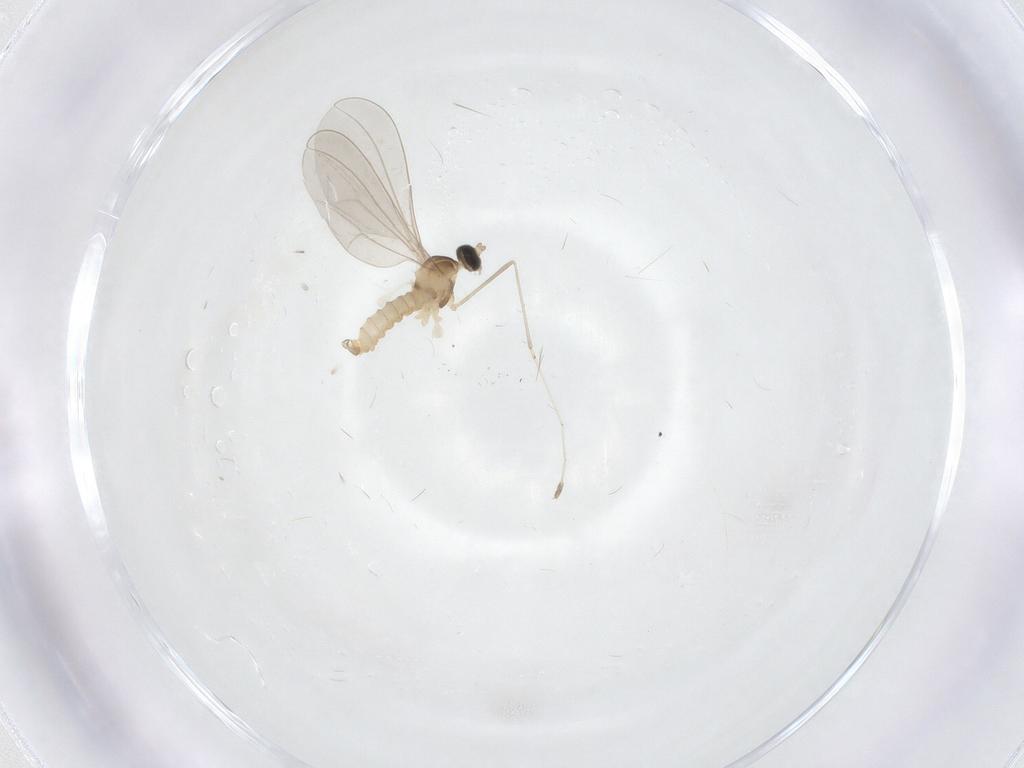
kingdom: Animalia
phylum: Arthropoda
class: Insecta
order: Diptera
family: Cecidomyiidae
